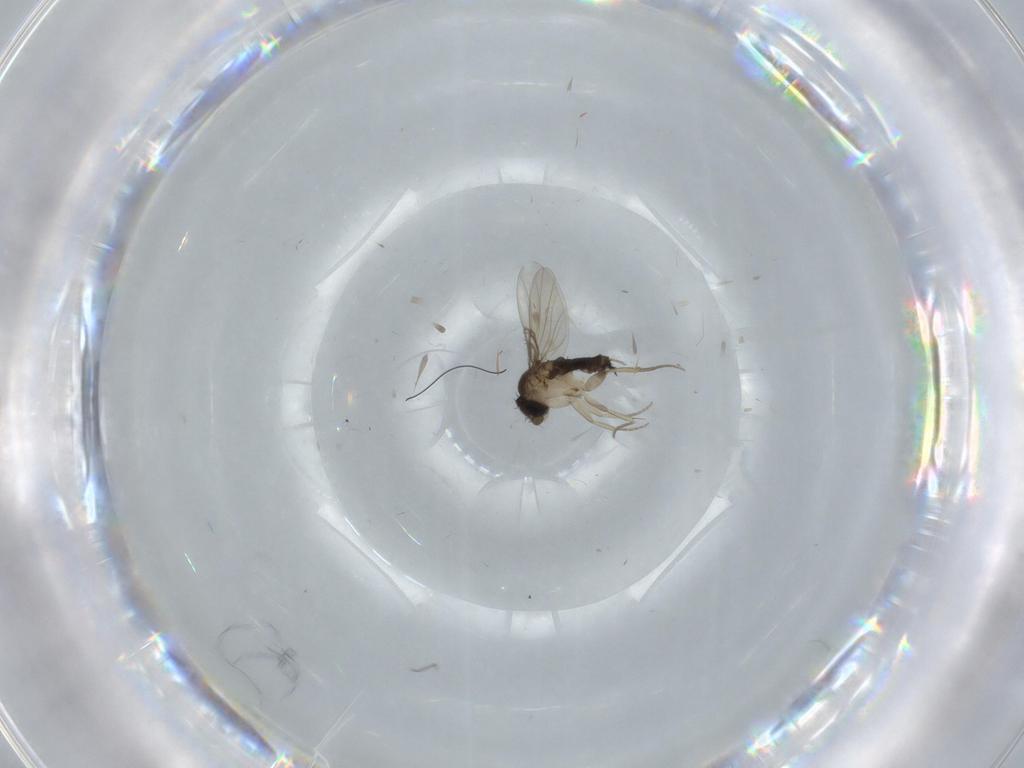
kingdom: Animalia
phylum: Arthropoda
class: Insecta
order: Diptera
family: Phoridae
